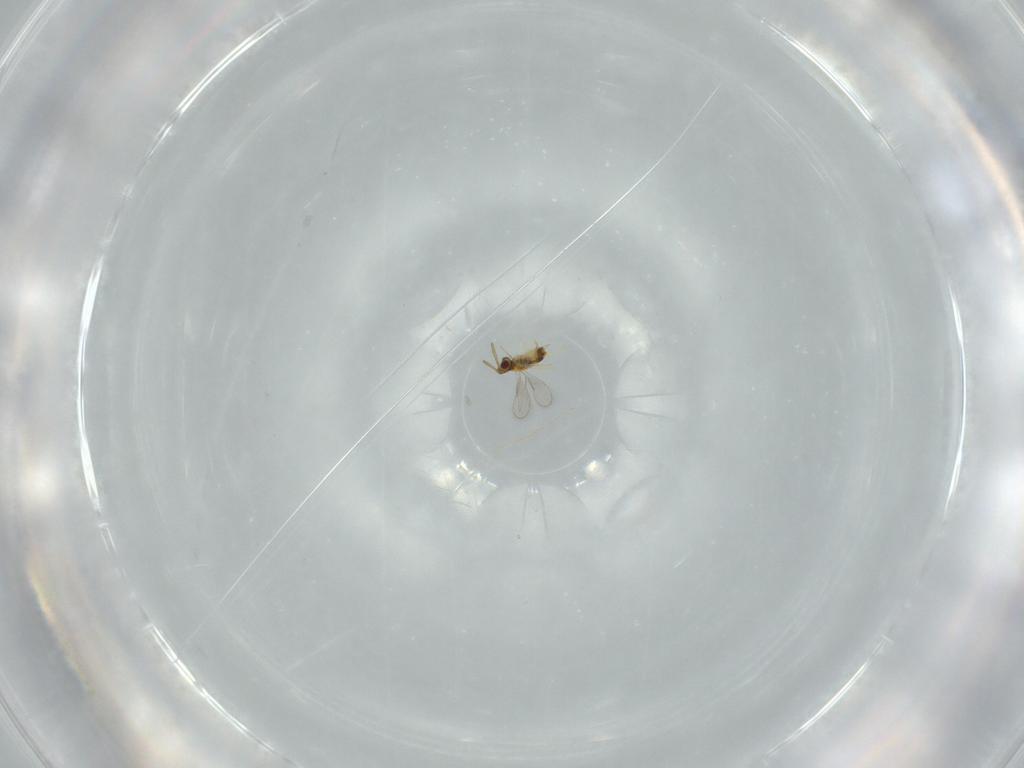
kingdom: Animalia
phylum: Arthropoda
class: Insecta
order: Hymenoptera
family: Aphelinidae
